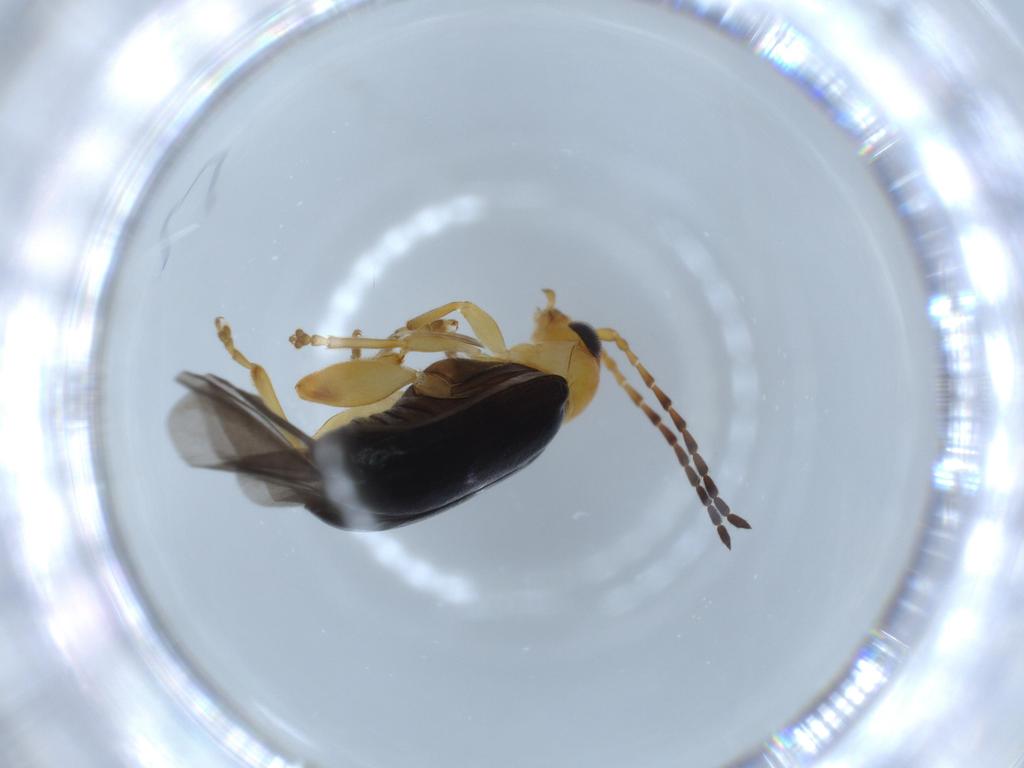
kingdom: Animalia
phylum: Arthropoda
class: Insecta
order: Coleoptera
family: Chrysomelidae
